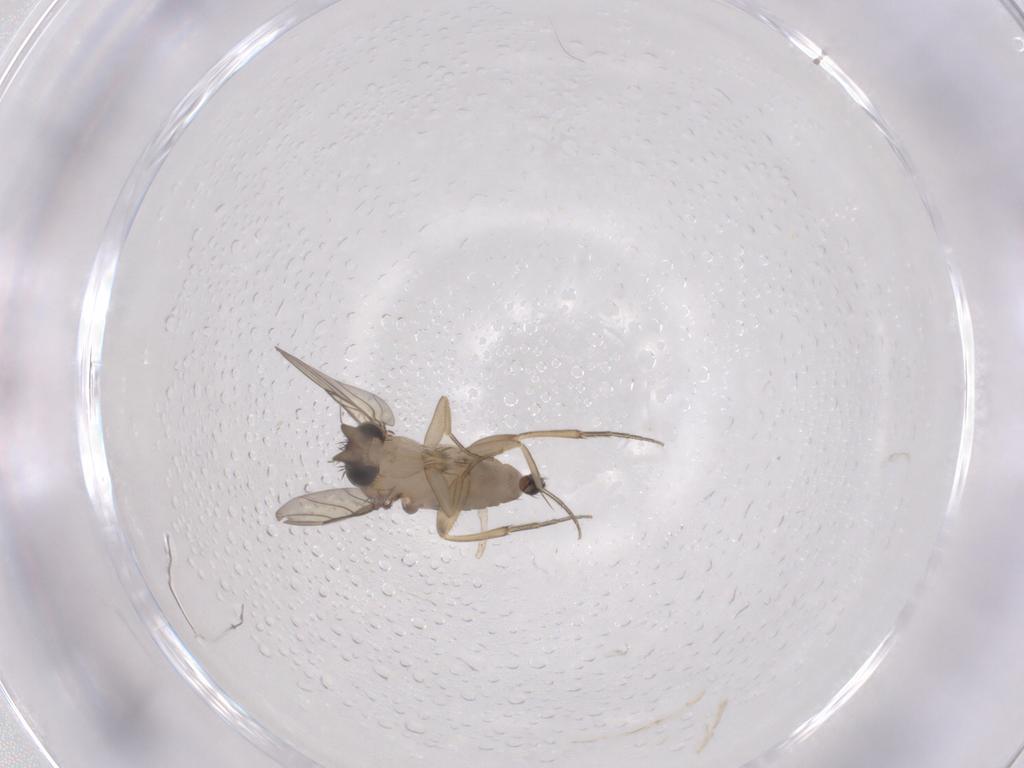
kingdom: Animalia
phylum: Arthropoda
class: Insecta
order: Diptera
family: Phoridae
